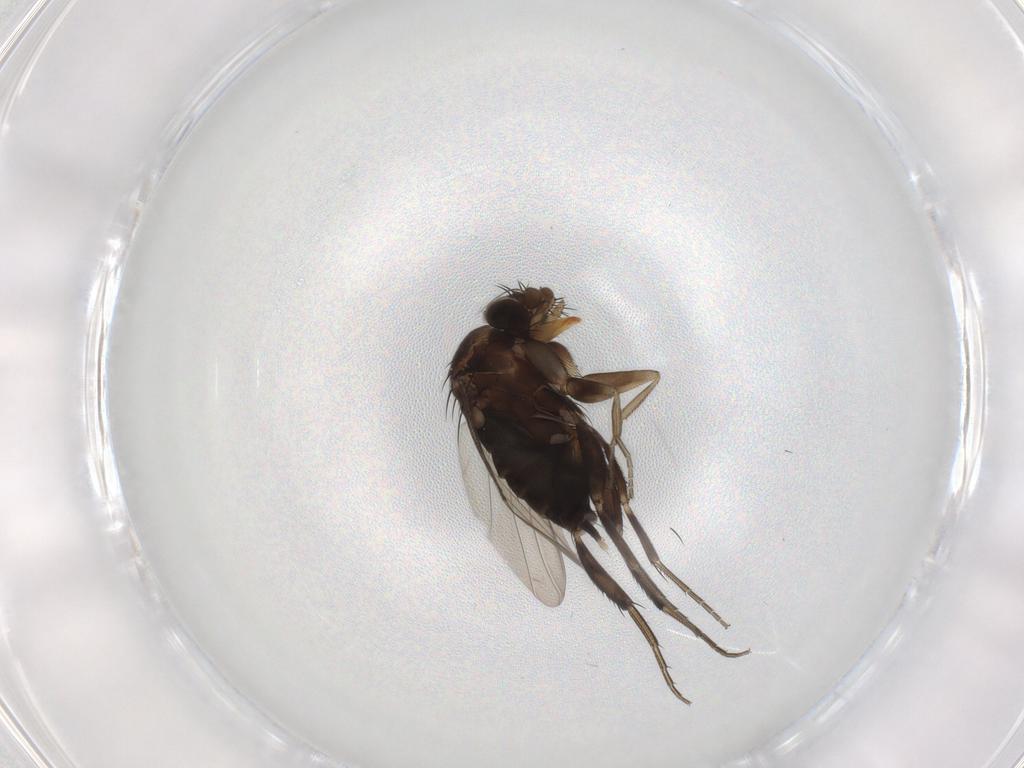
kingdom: Animalia
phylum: Arthropoda
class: Insecta
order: Diptera
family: Phoridae
